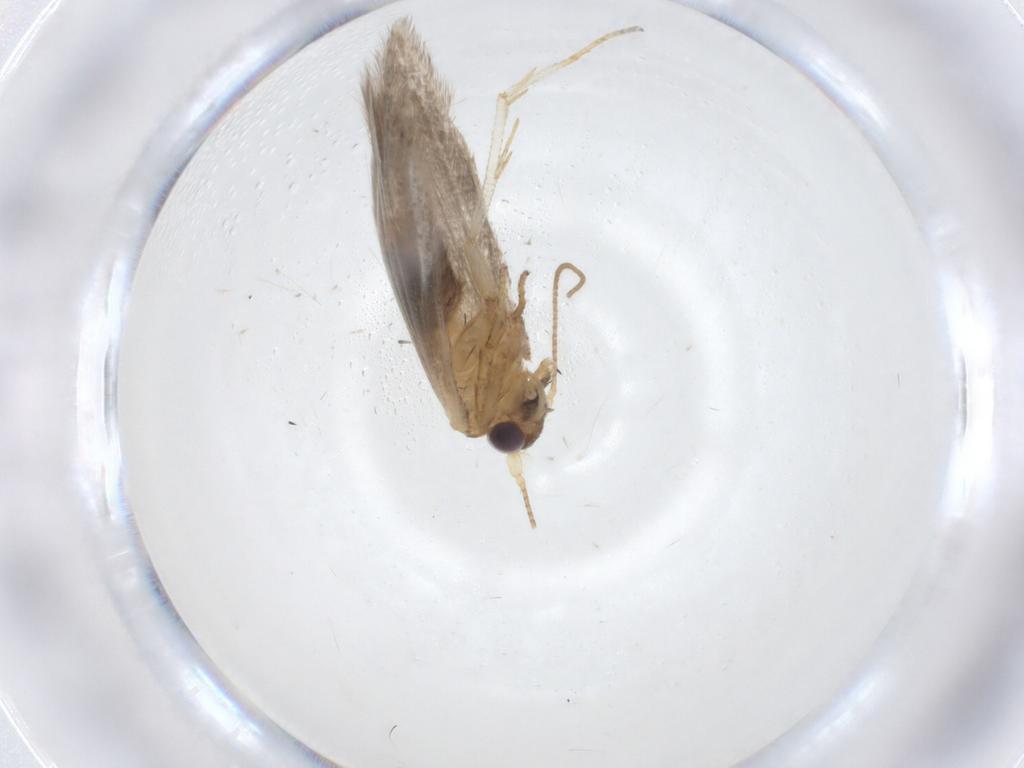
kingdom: Animalia
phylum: Arthropoda
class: Insecta
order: Lepidoptera
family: Blastobasidae
